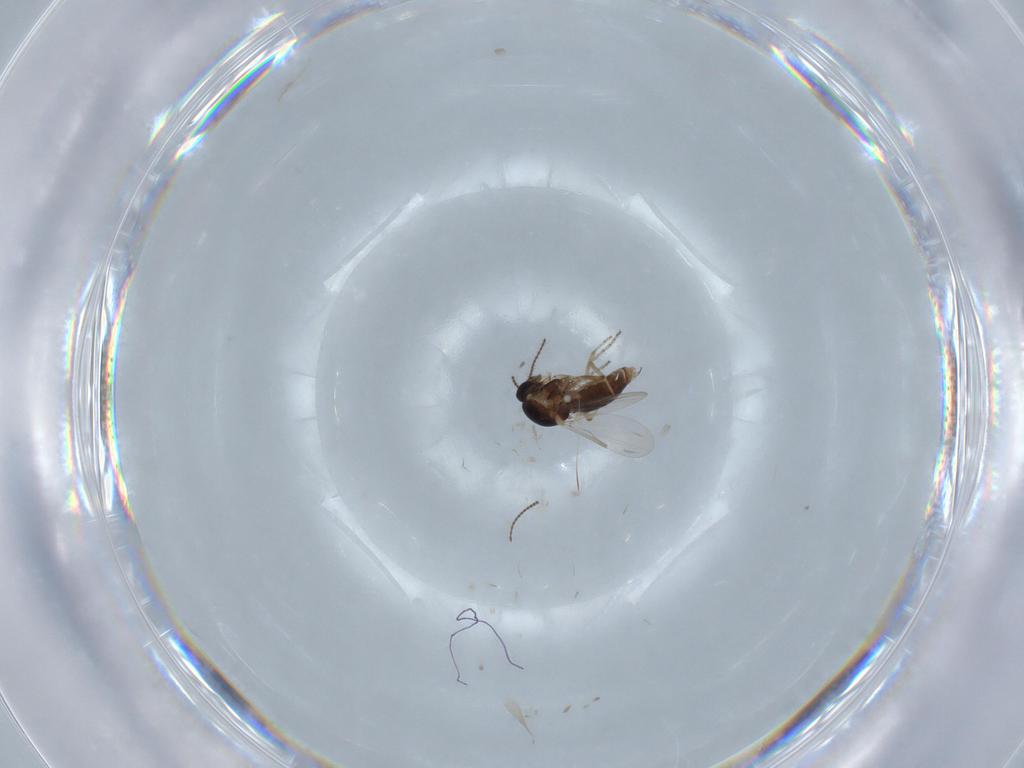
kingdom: Animalia
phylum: Arthropoda
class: Insecta
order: Diptera
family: Ceratopogonidae
